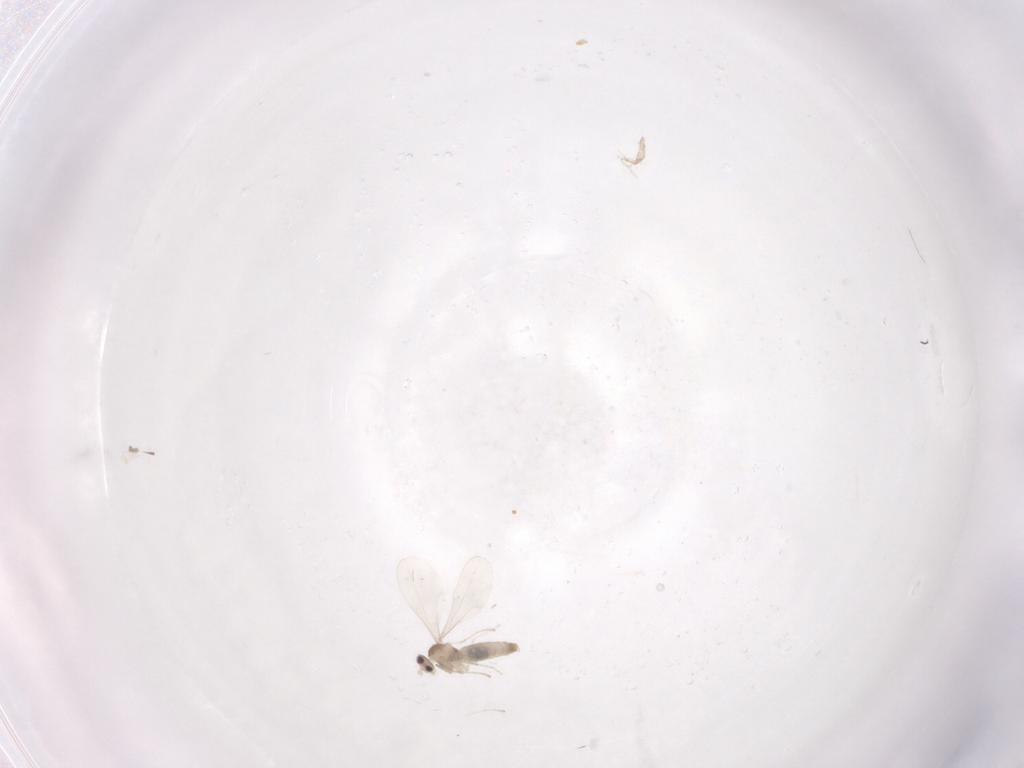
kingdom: Animalia
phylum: Arthropoda
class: Insecta
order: Diptera
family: Cecidomyiidae
